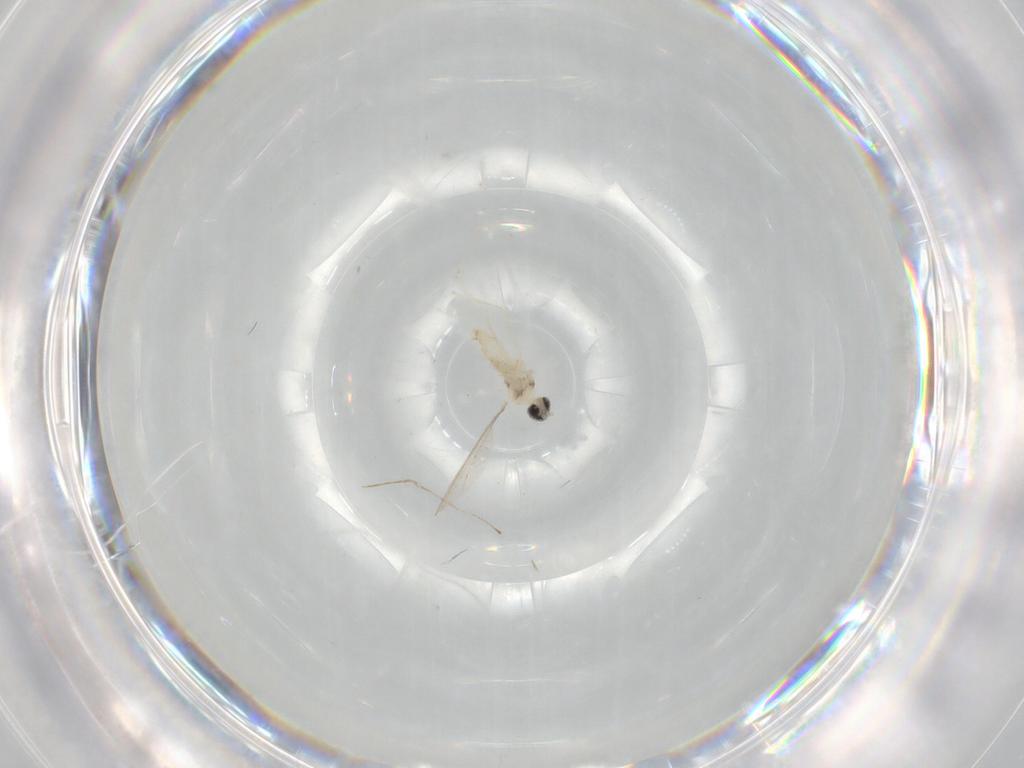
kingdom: Animalia
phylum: Arthropoda
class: Insecta
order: Diptera
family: Cecidomyiidae
